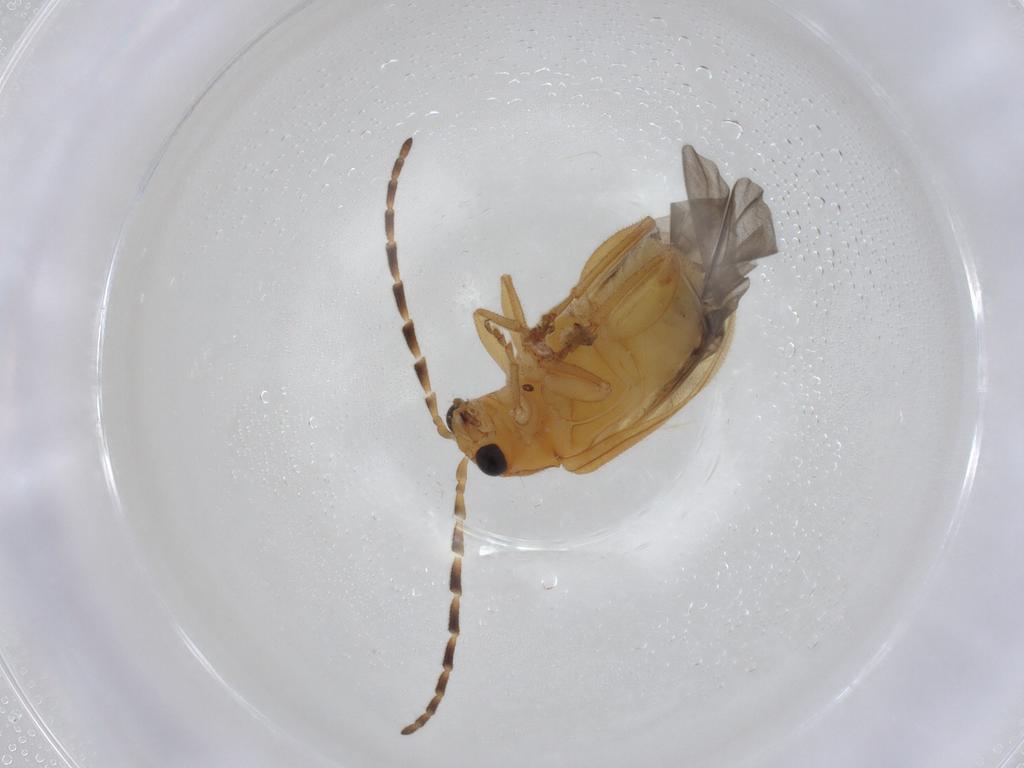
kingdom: Animalia
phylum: Arthropoda
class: Insecta
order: Coleoptera
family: Chrysomelidae
